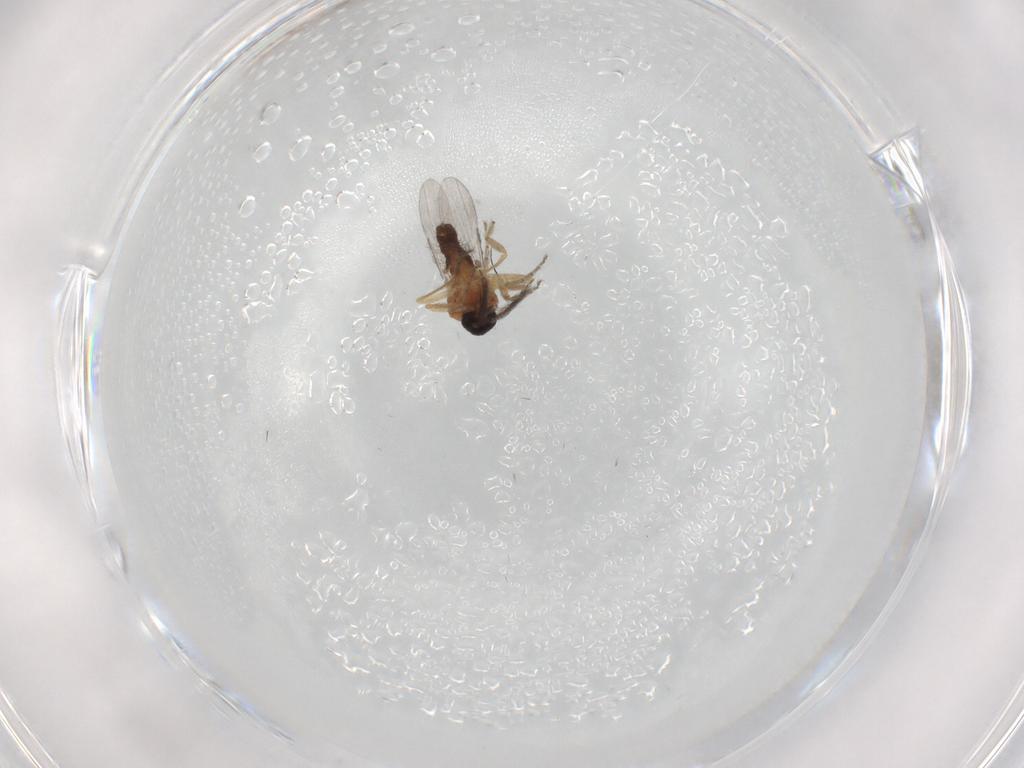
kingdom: Animalia
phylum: Arthropoda
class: Insecta
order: Diptera
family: Ceratopogonidae
